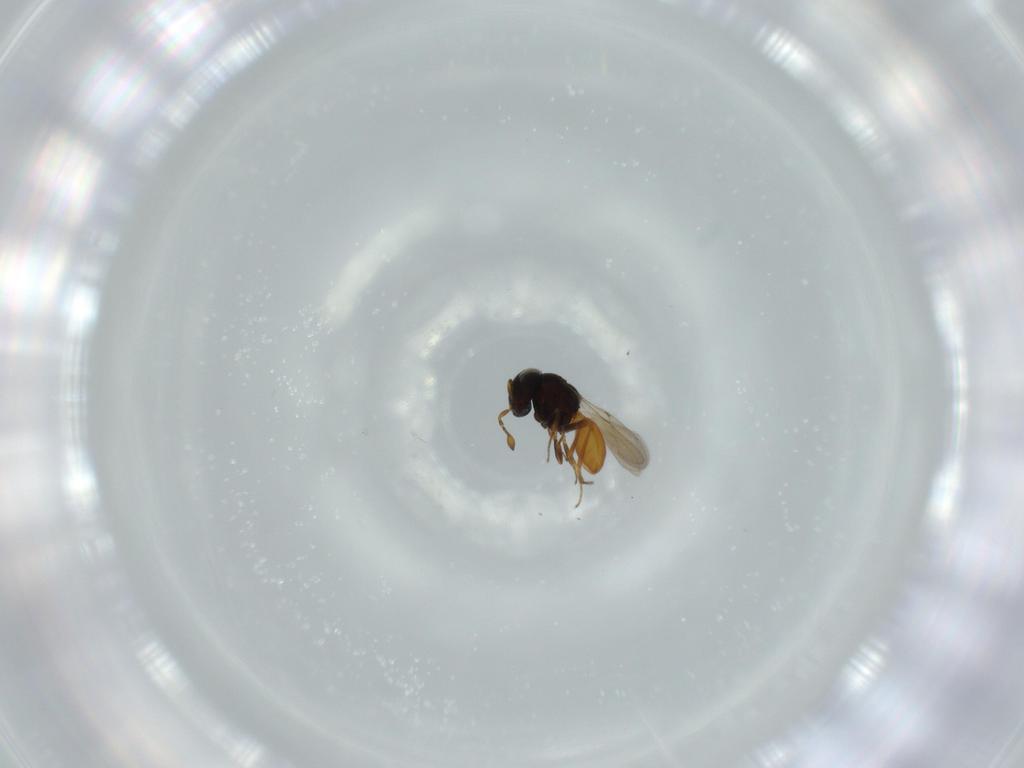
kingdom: Animalia
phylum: Arthropoda
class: Insecta
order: Hymenoptera
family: Scelionidae
